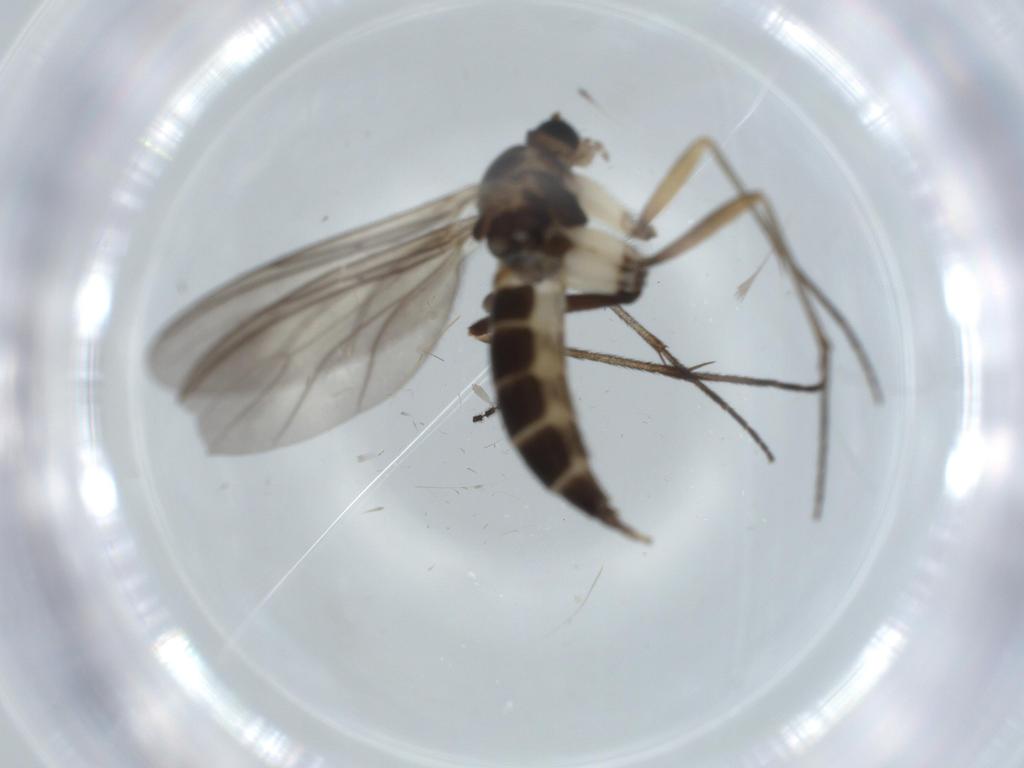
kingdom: Animalia
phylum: Arthropoda
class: Insecta
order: Diptera
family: Sciaridae
